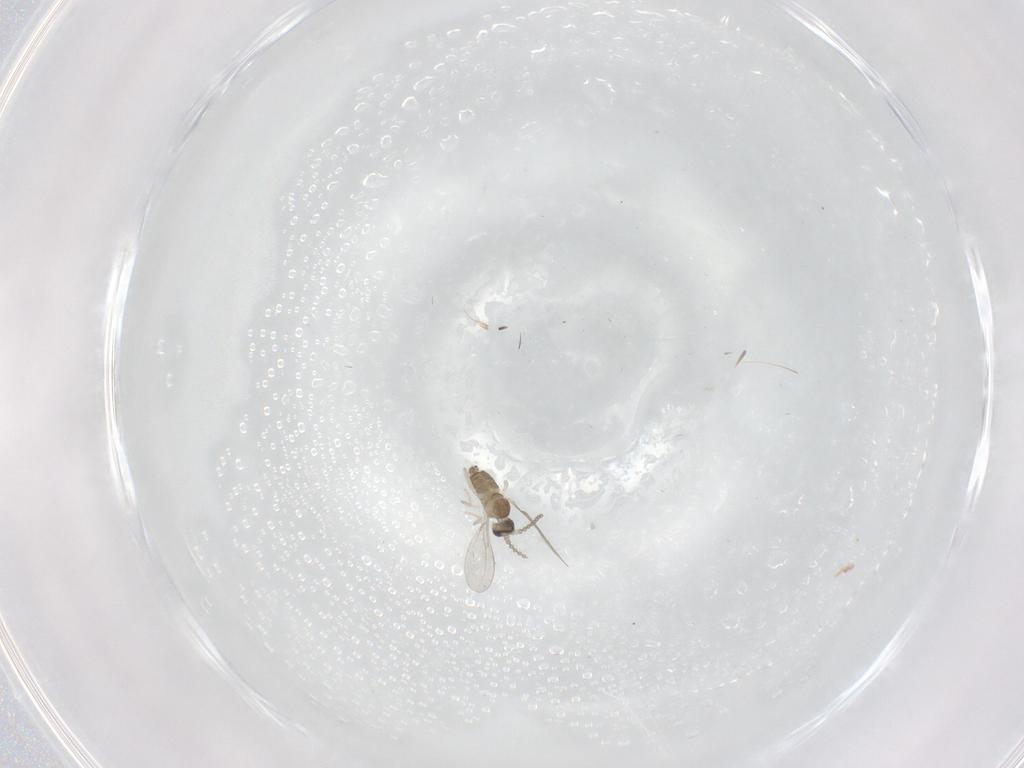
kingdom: Animalia
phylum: Arthropoda
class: Insecta
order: Diptera
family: Cecidomyiidae
